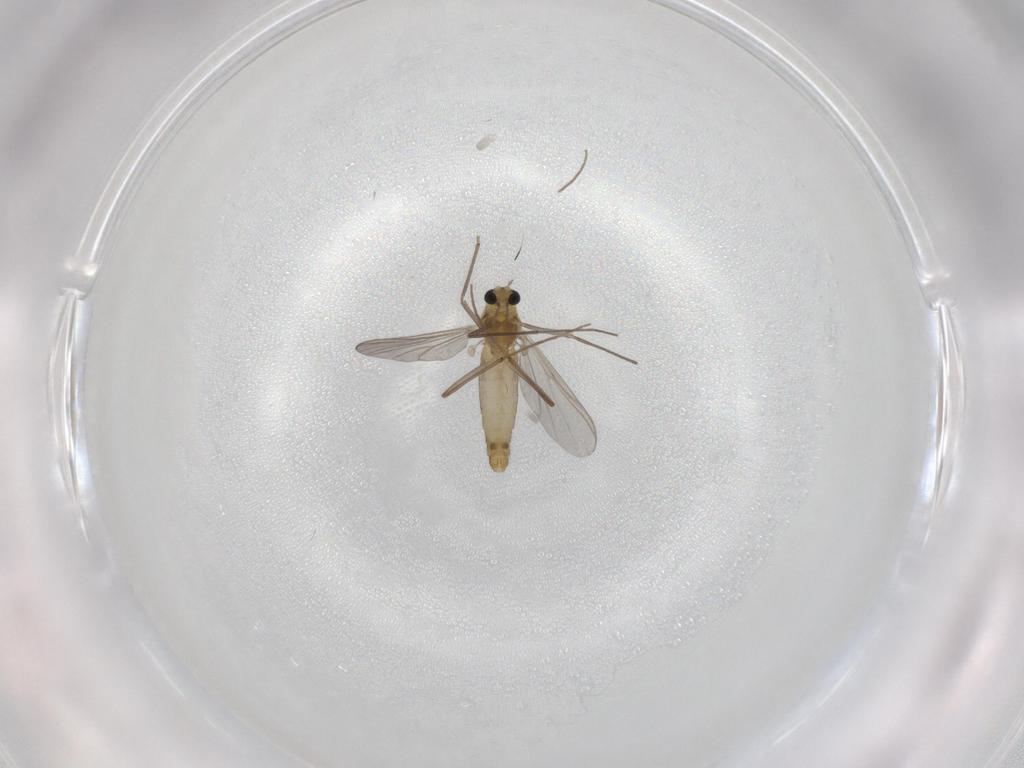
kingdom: Animalia
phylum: Arthropoda
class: Insecta
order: Diptera
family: Chironomidae
